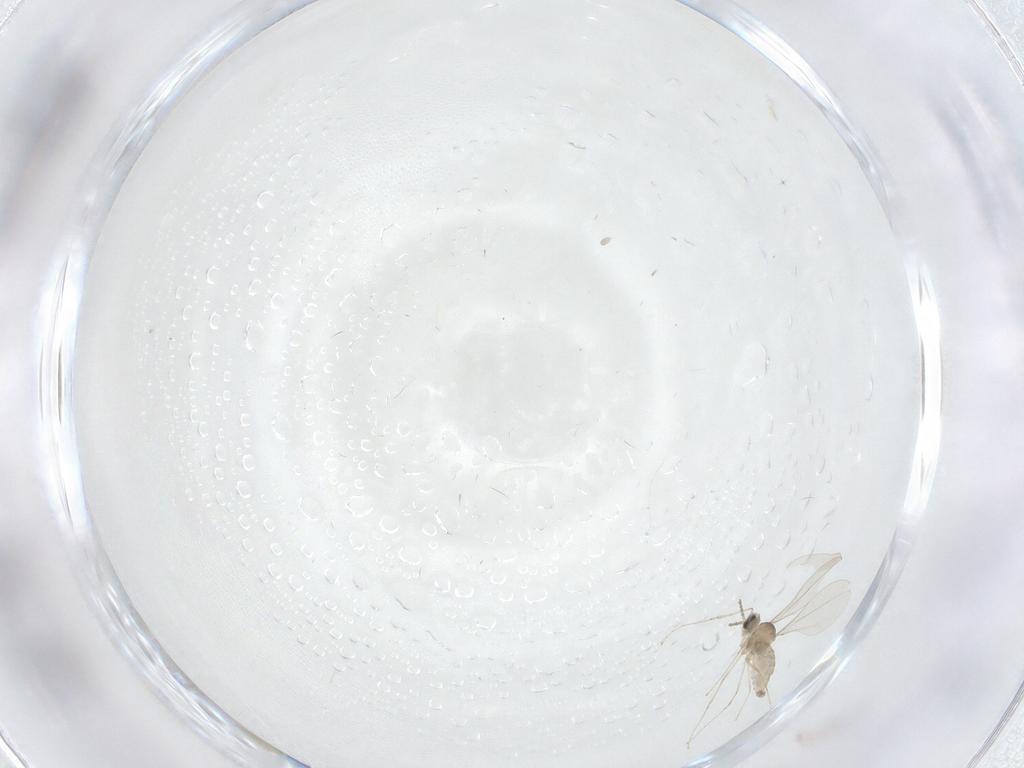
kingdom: Animalia
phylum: Arthropoda
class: Insecta
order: Diptera
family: Cecidomyiidae
